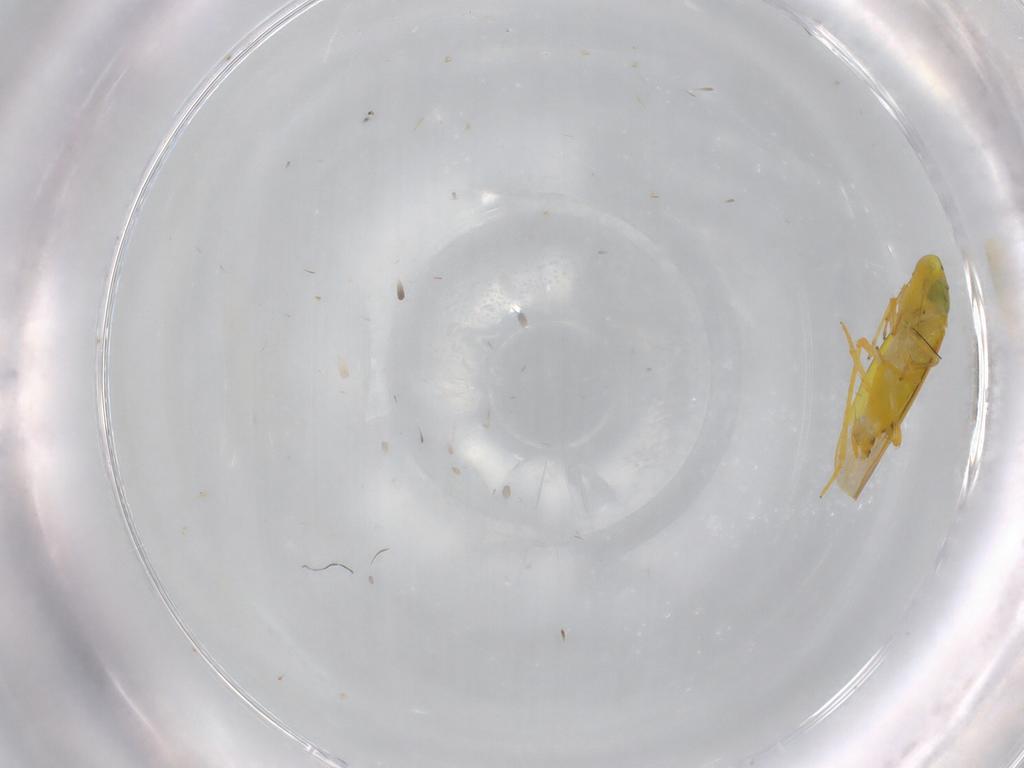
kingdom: Animalia
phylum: Arthropoda
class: Insecta
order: Hemiptera
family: Cicadellidae
